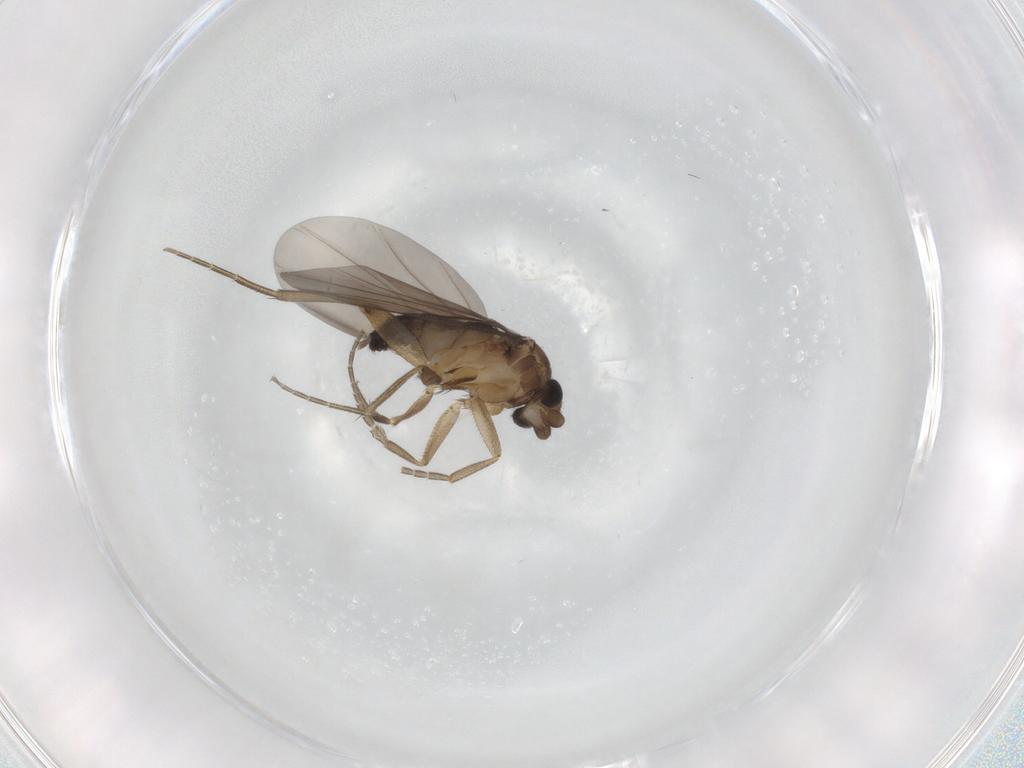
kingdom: Animalia
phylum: Arthropoda
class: Insecta
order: Diptera
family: Phoridae
